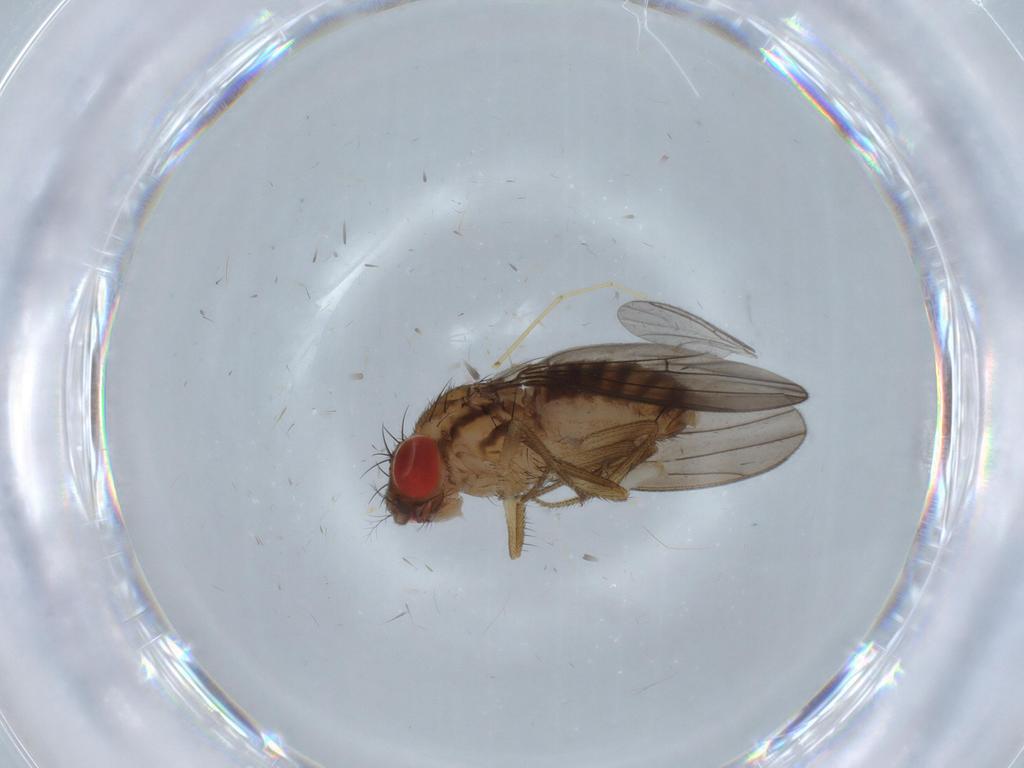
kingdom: Animalia
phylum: Arthropoda
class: Insecta
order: Diptera
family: Drosophilidae
